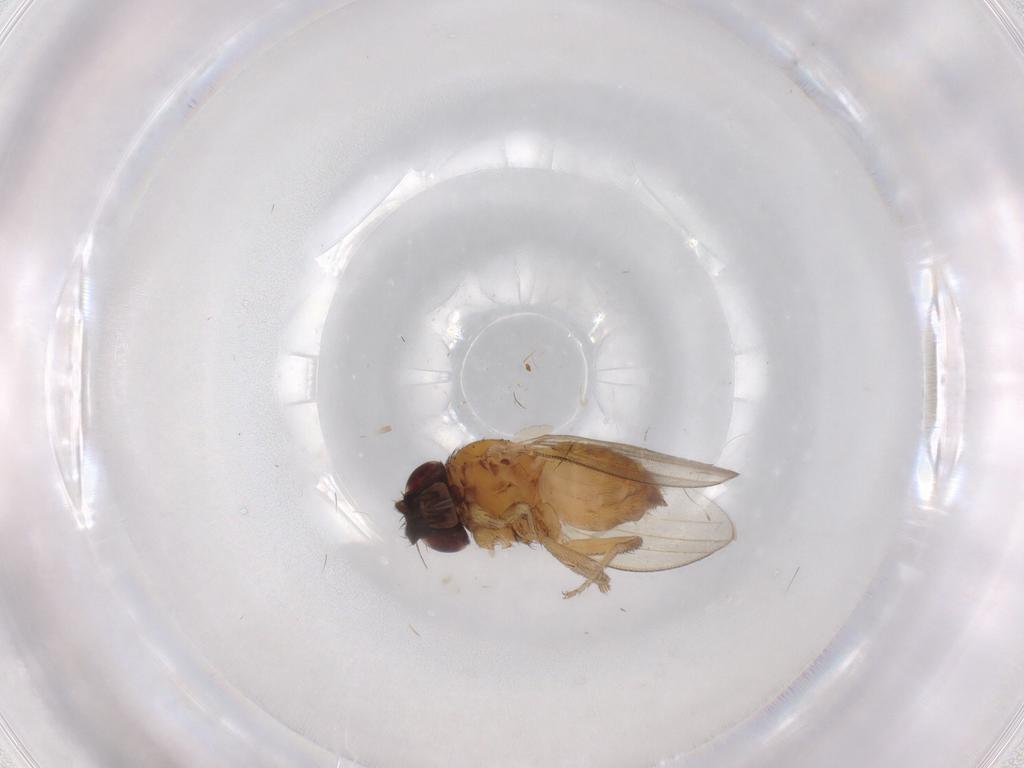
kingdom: Animalia
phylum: Arthropoda
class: Insecta
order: Diptera
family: Milichiidae
